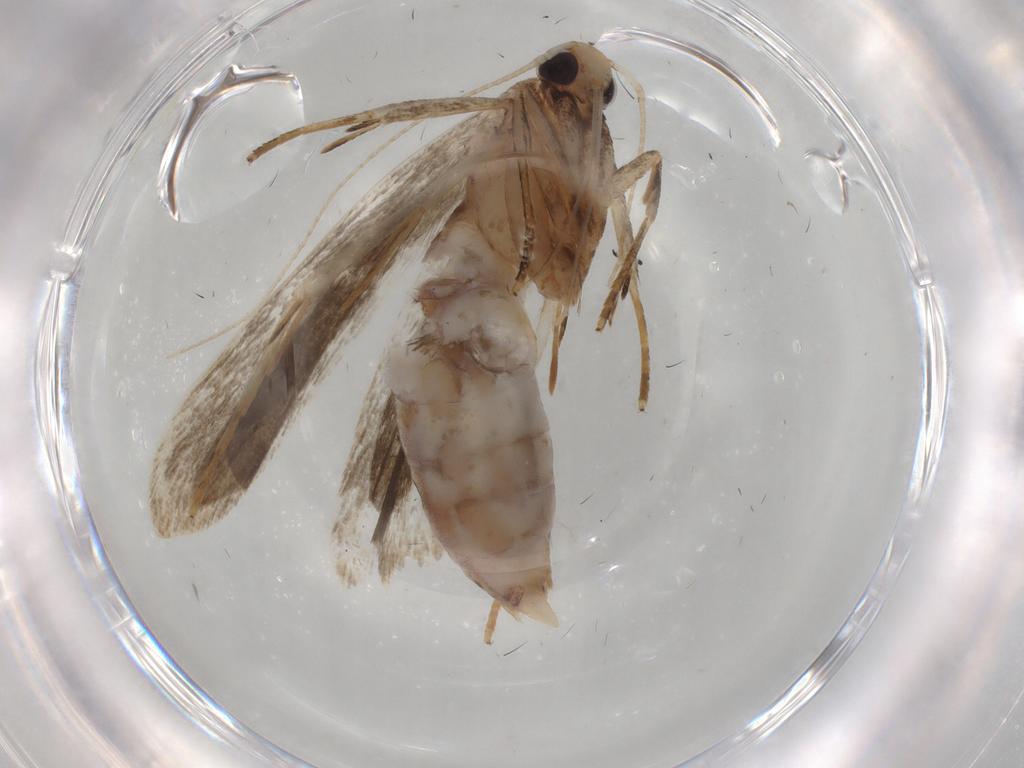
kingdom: Animalia
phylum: Arthropoda
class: Insecta
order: Lepidoptera
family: Gelechiidae
